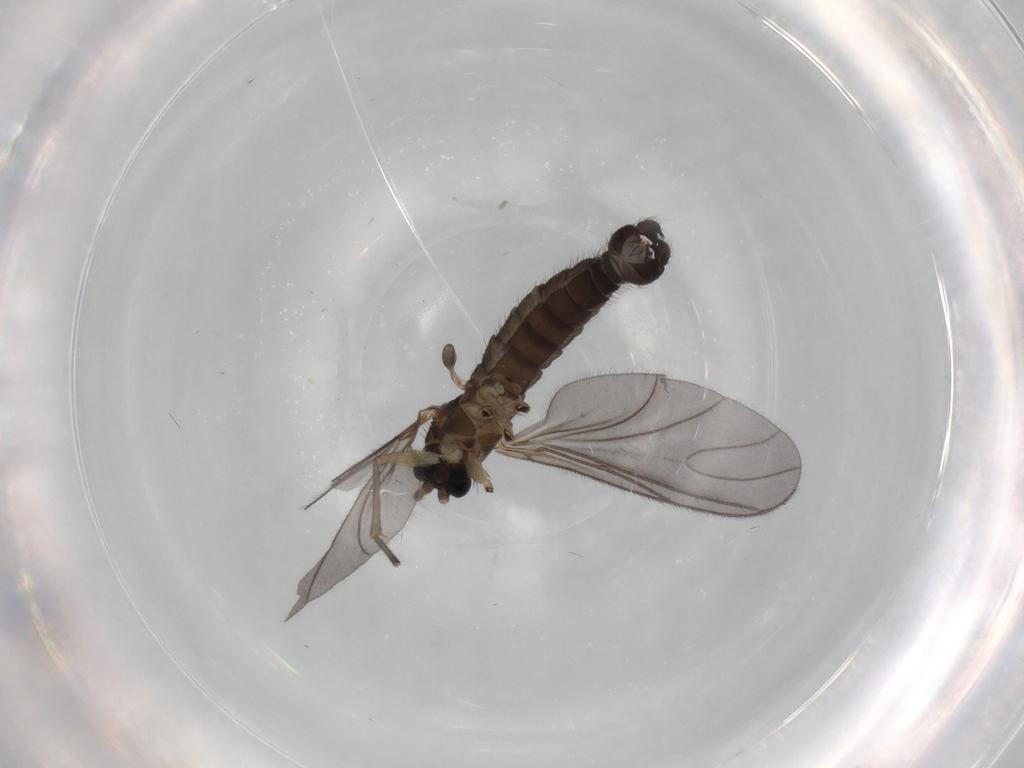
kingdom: Animalia
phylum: Arthropoda
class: Insecta
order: Diptera
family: Sciaridae
